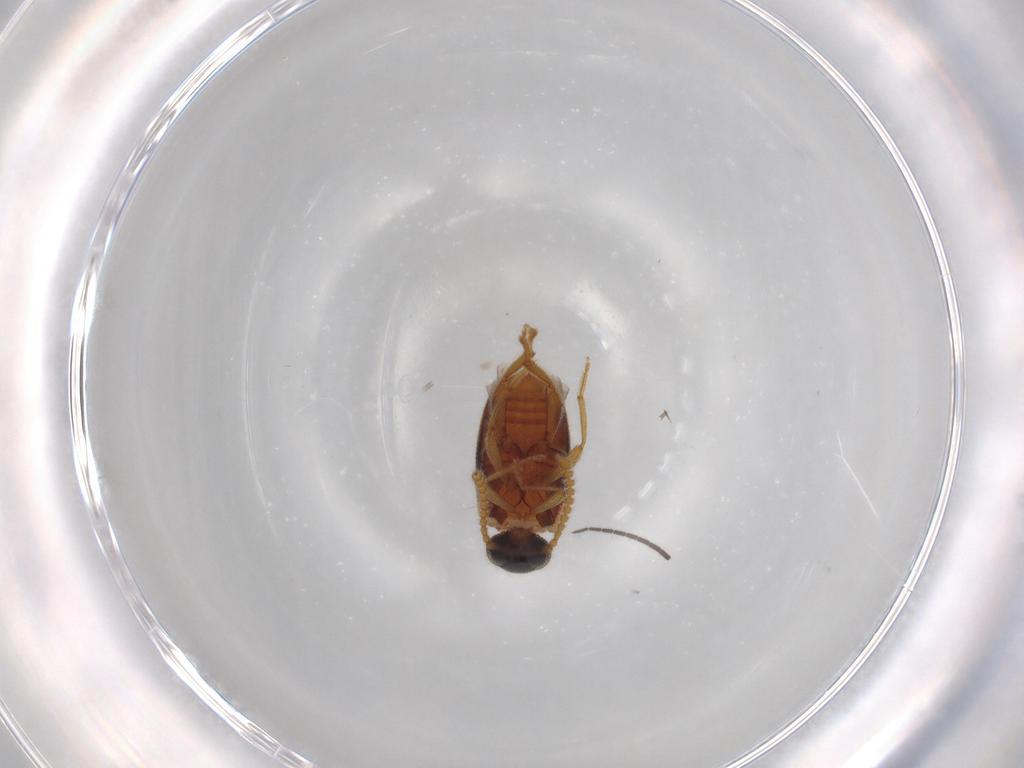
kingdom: Animalia
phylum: Arthropoda
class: Insecta
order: Coleoptera
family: Aderidae
